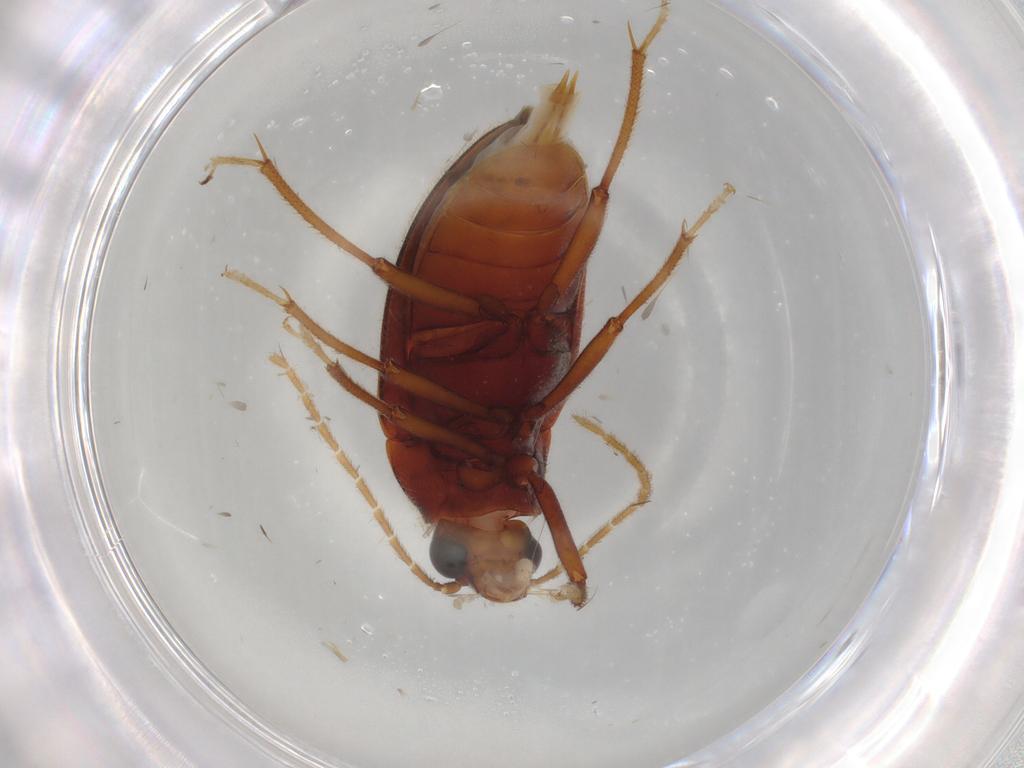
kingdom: Animalia
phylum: Arthropoda
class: Insecta
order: Coleoptera
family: Ptilodactylidae
